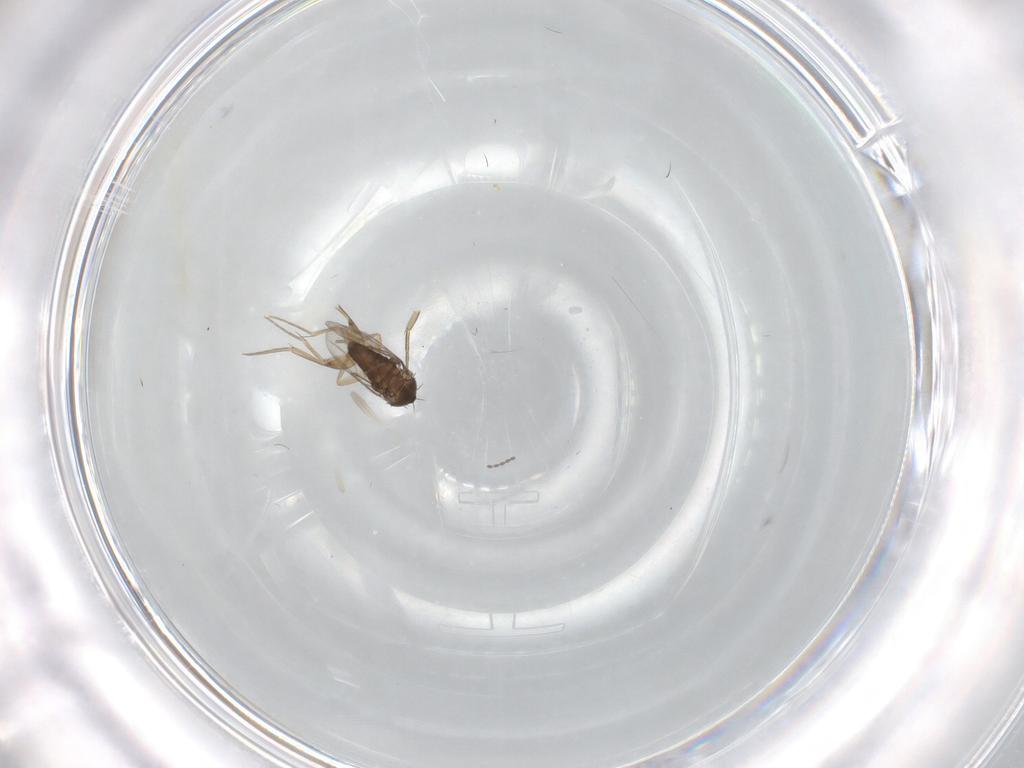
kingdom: Animalia
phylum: Arthropoda
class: Insecta
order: Diptera
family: Phoridae
